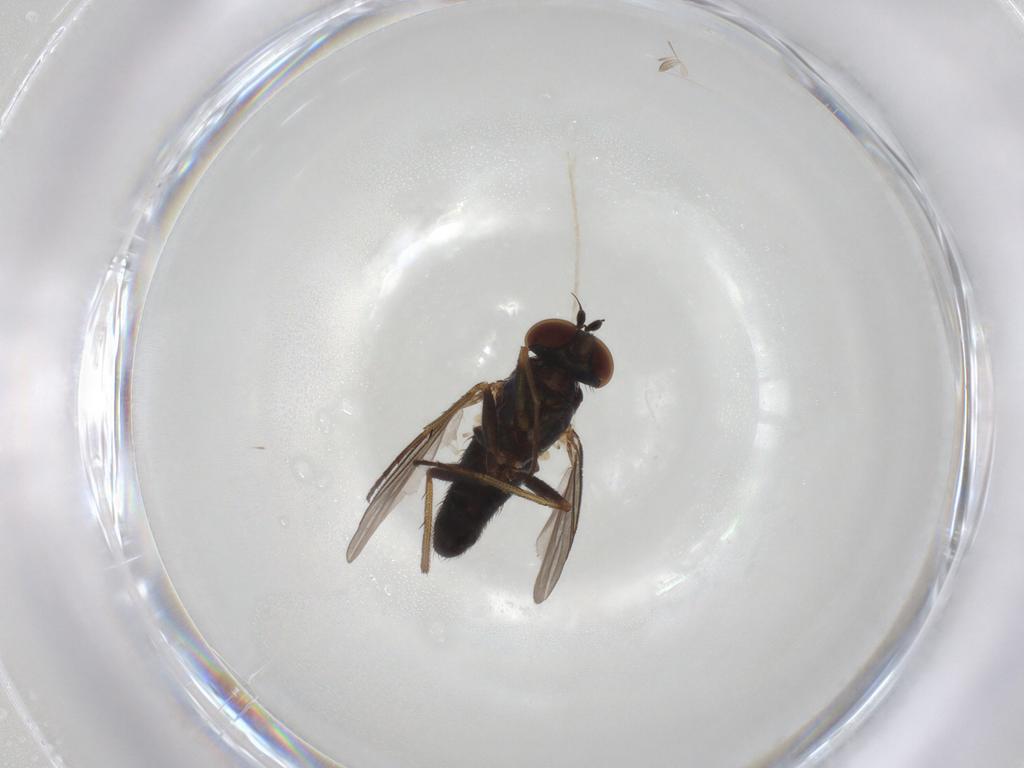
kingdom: Animalia
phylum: Arthropoda
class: Insecta
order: Diptera
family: Dolichopodidae
